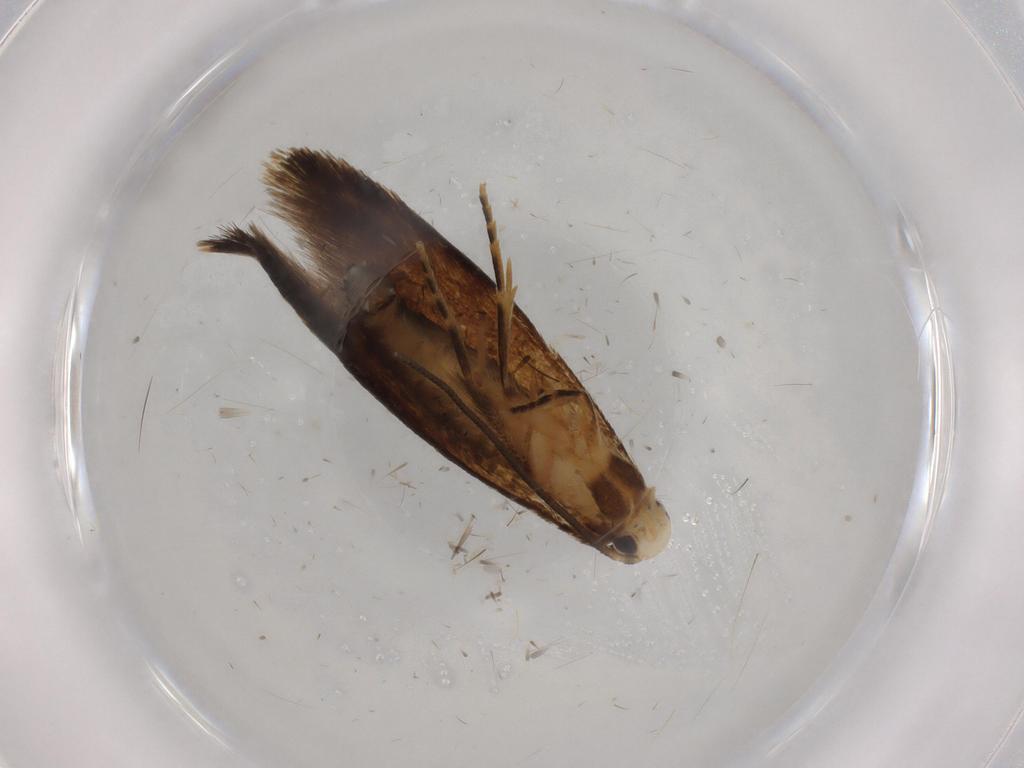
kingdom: Animalia
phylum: Arthropoda
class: Insecta
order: Lepidoptera
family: Tineidae
